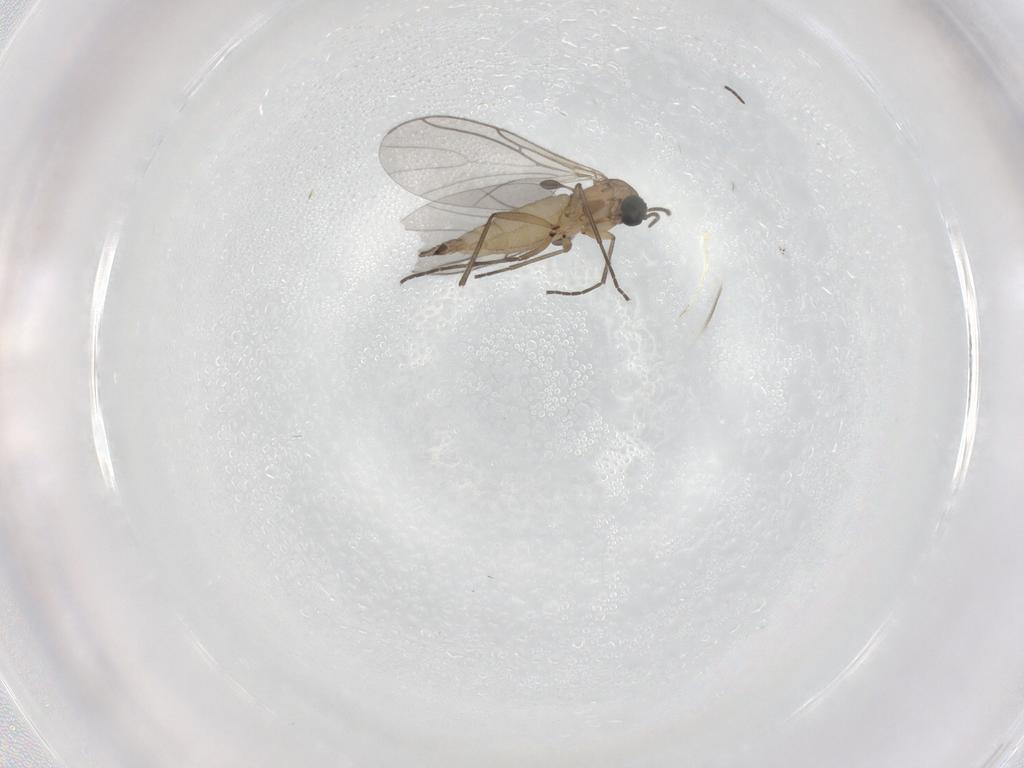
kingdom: Animalia
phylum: Arthropoda
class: Insecta
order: Diptera
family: Sciaridae
